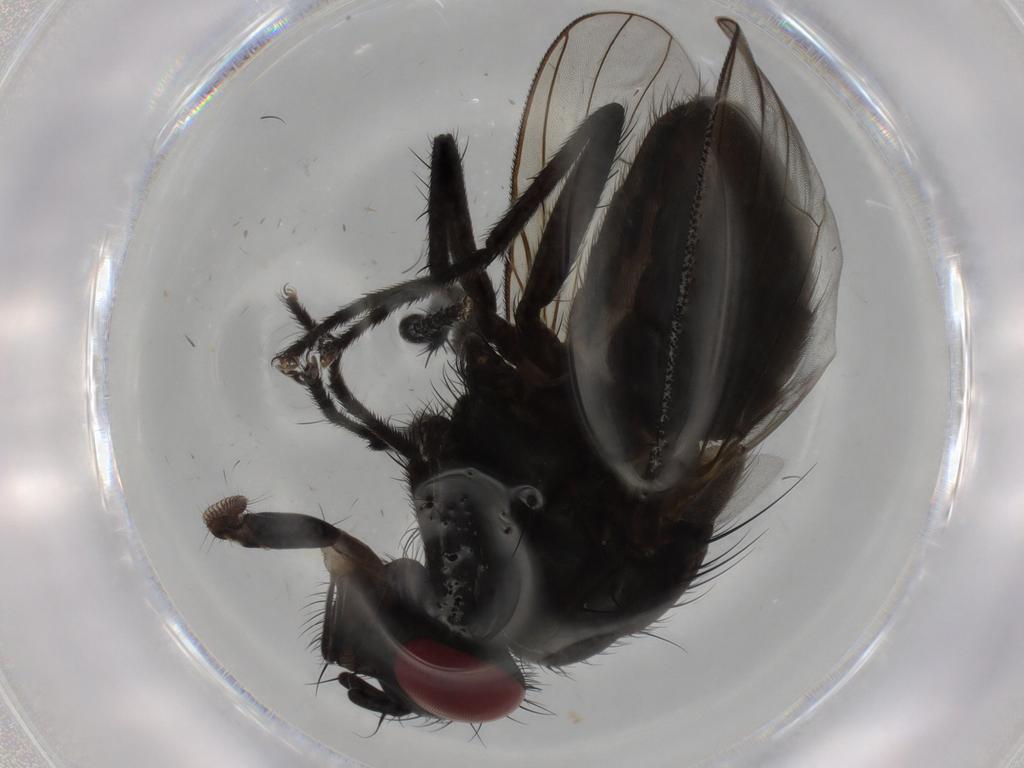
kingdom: Animalia
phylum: Arthropoda
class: Insecta
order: Diptera
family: Muscidae
